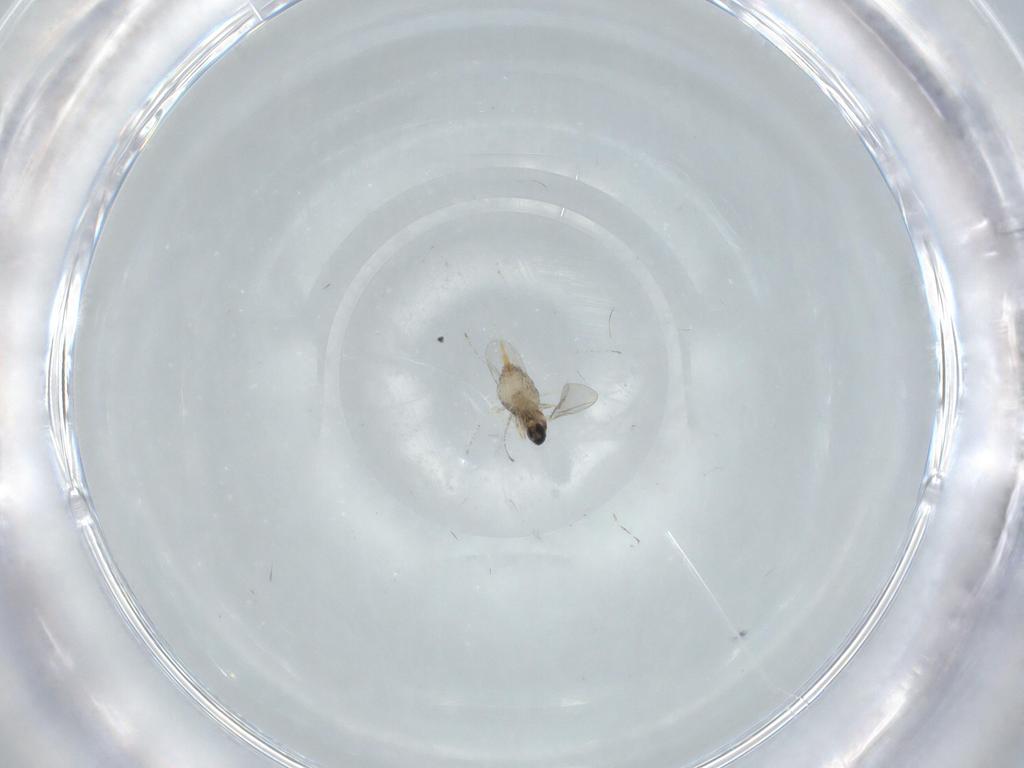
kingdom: Animalia
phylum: Arthropoda
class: Insecta
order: Diptera
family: Cecidomyiidae
